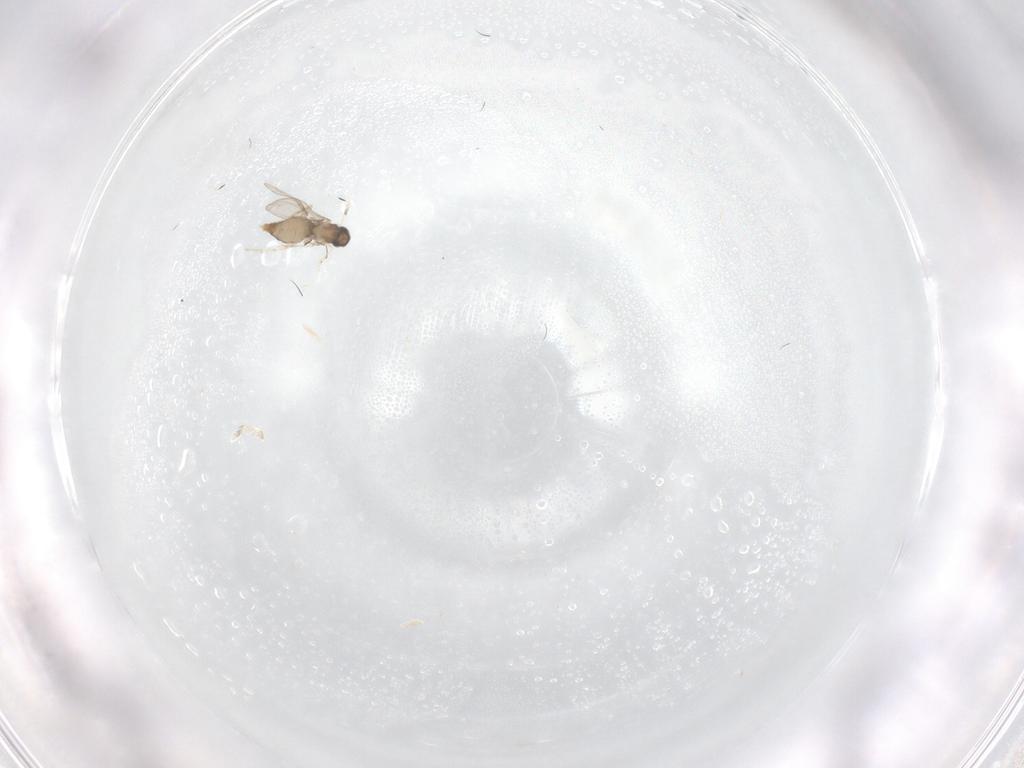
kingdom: Animalia
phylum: Arthropoda
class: Insecta
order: Diptera
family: Cecidomyiidae
